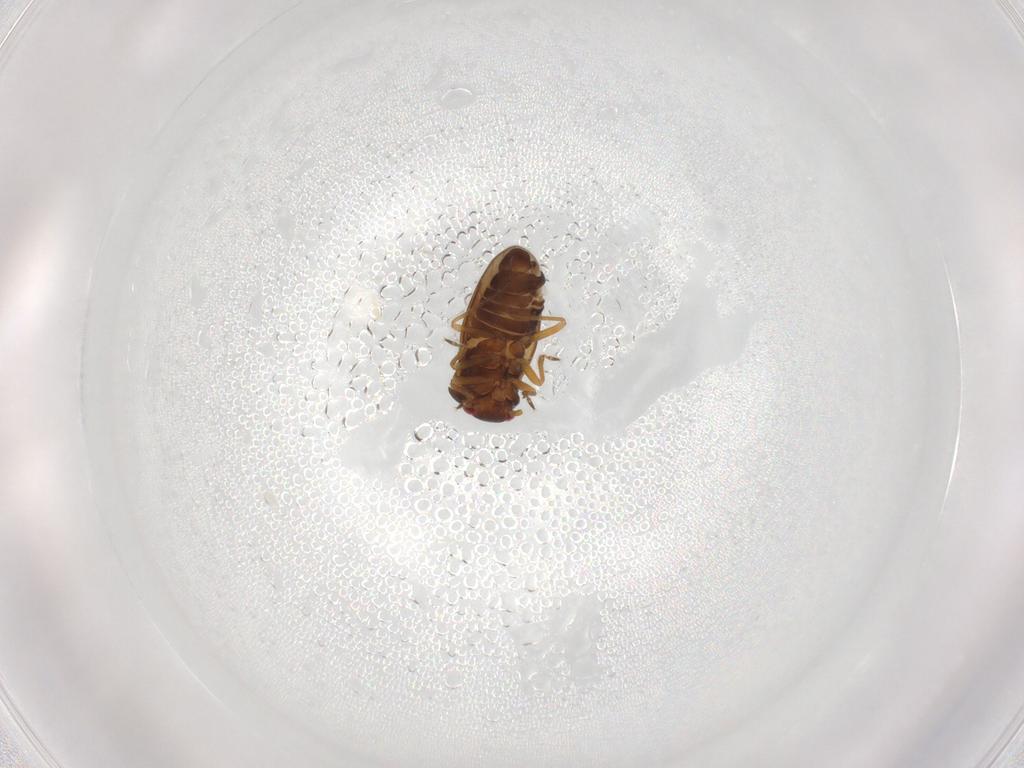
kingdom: Animalia
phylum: Arthropoda
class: Insecta
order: Hemiptera
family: Schizopteridae
